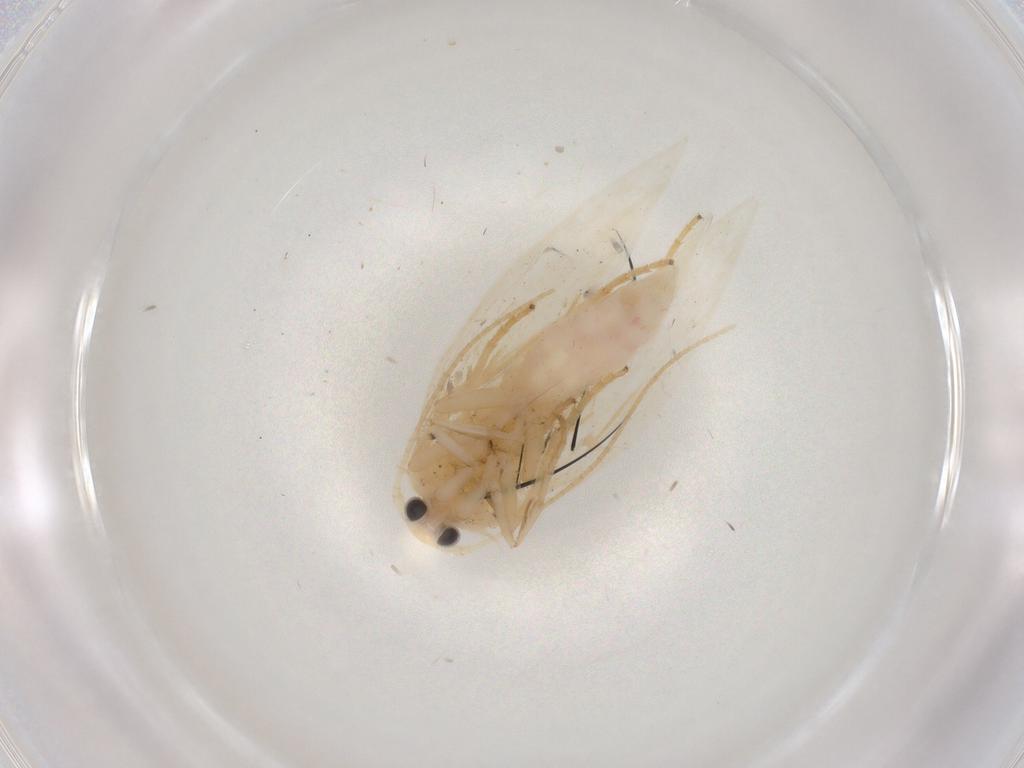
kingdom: Animalia
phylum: Arthropoda
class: Insecta
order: Lepidoptera
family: Elachistidae
